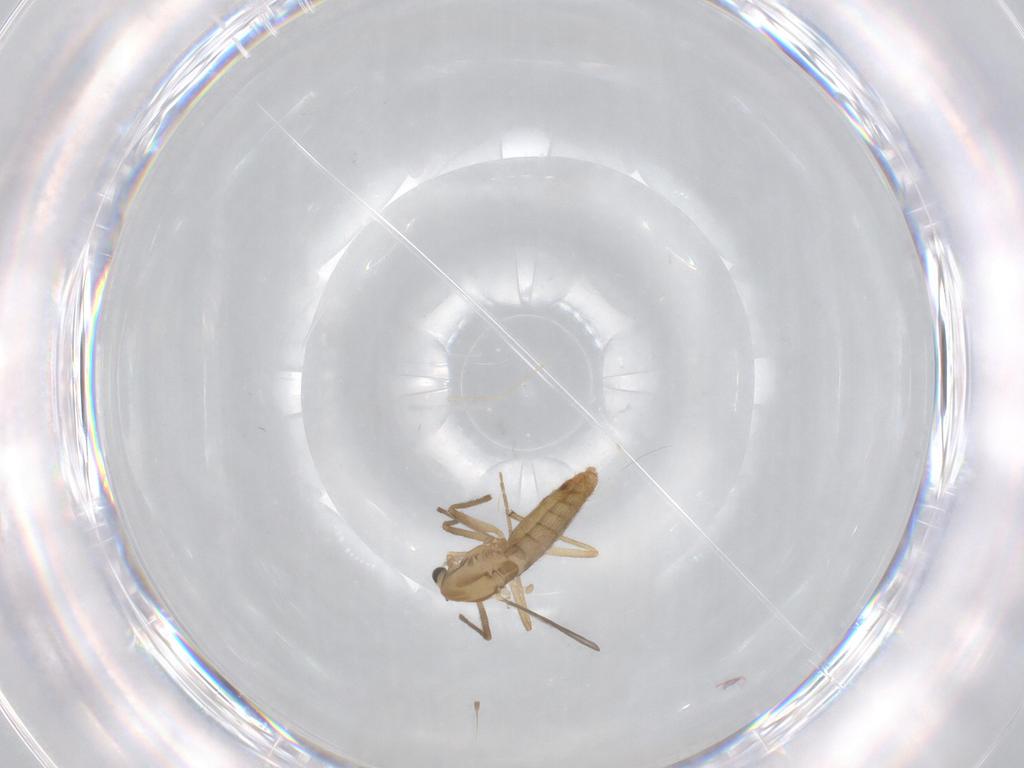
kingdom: Animalia
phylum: Arthropoda
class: Insecta
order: Diptera
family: Chironomidae
